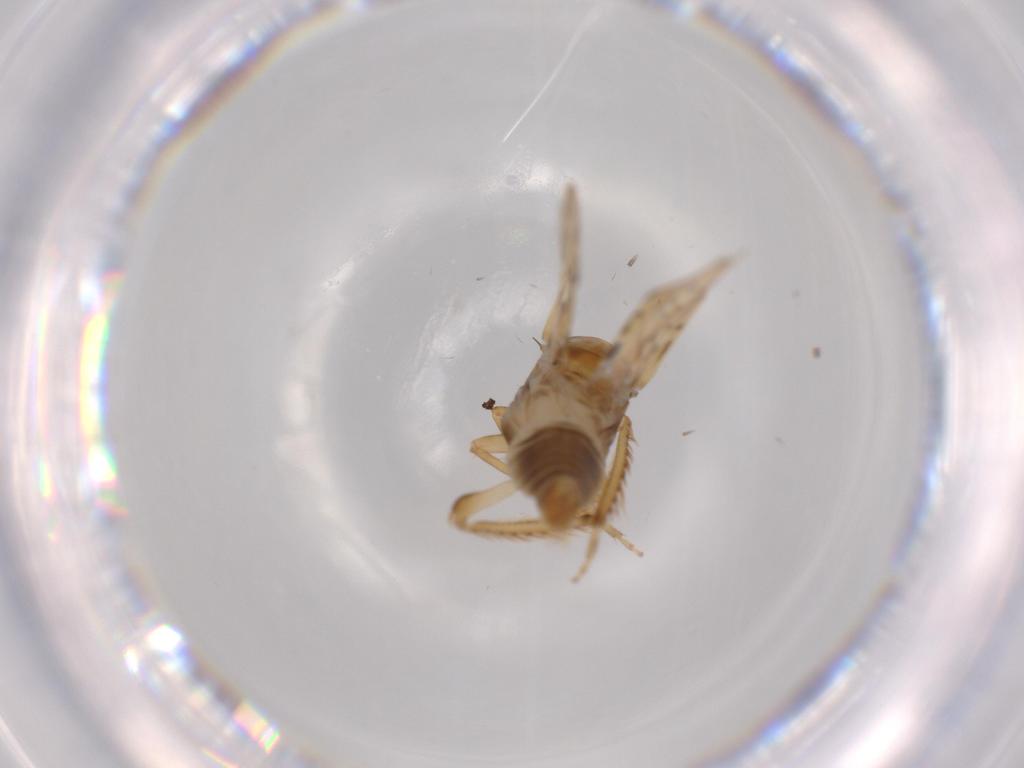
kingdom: Animalia
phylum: Arthropoda
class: Insecta
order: Hemiptera
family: Cicadellidae
